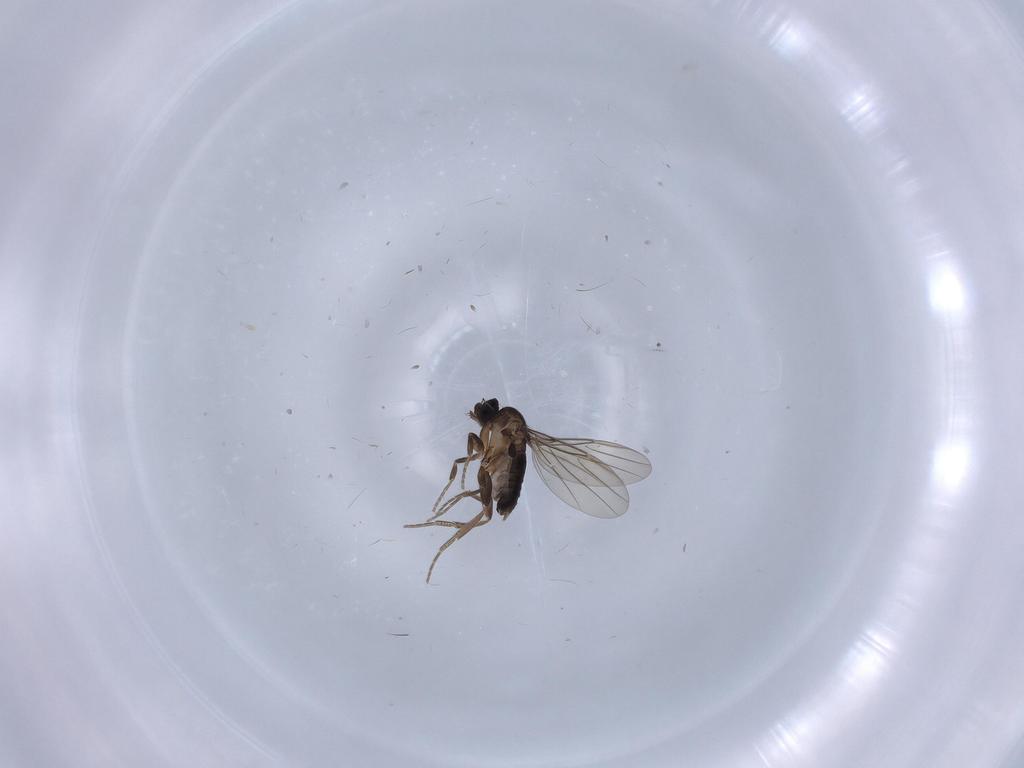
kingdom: Animalia
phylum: Arthropoda
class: Insecta
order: Diptera
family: Phoridae
